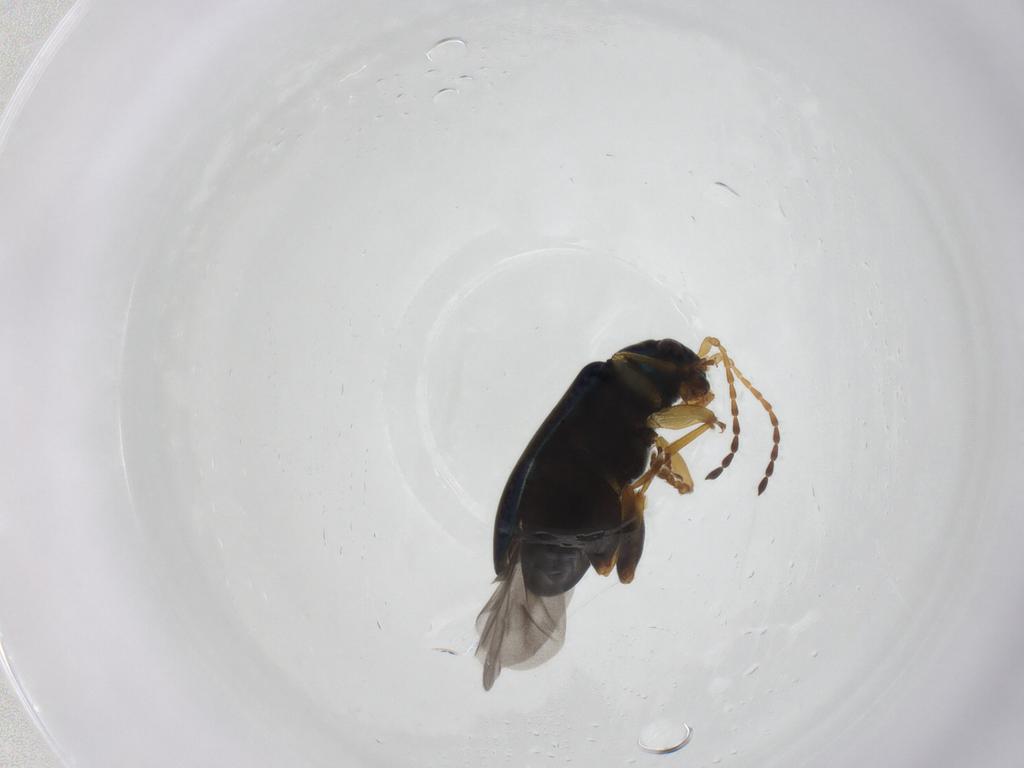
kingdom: Animalia
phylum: Arthropoda
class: Insecta
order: Coleoptera
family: Chrysomelidae
